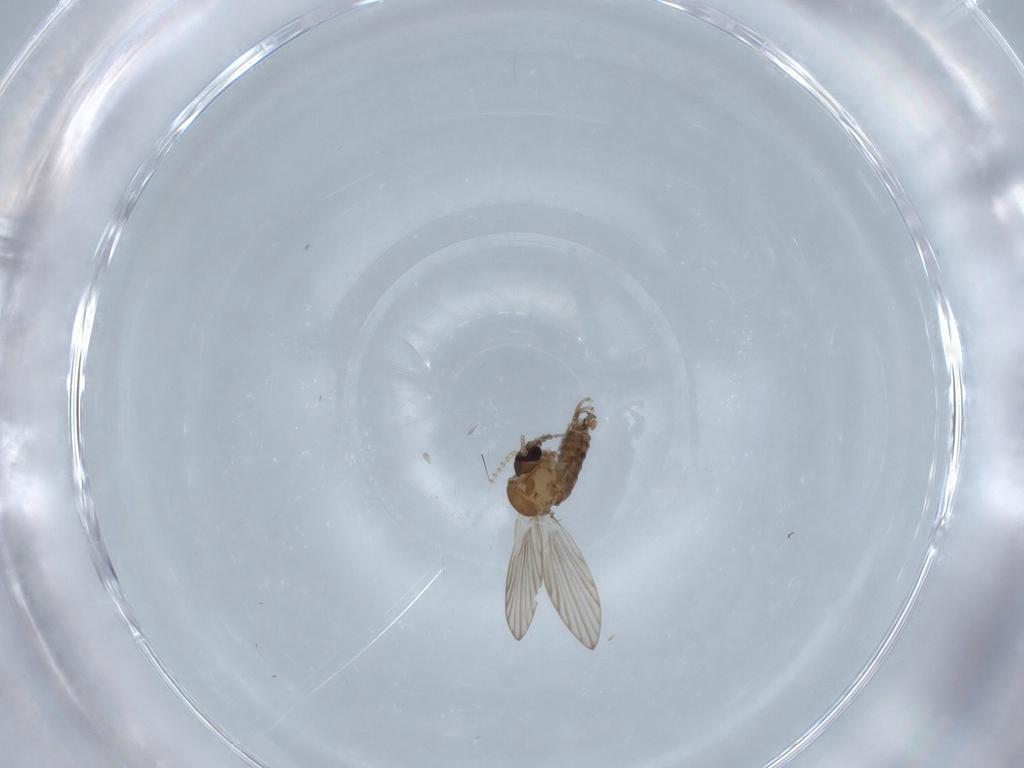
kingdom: Animalia
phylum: Arthropoda
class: Insecta
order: Diptera
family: Psychodidae
